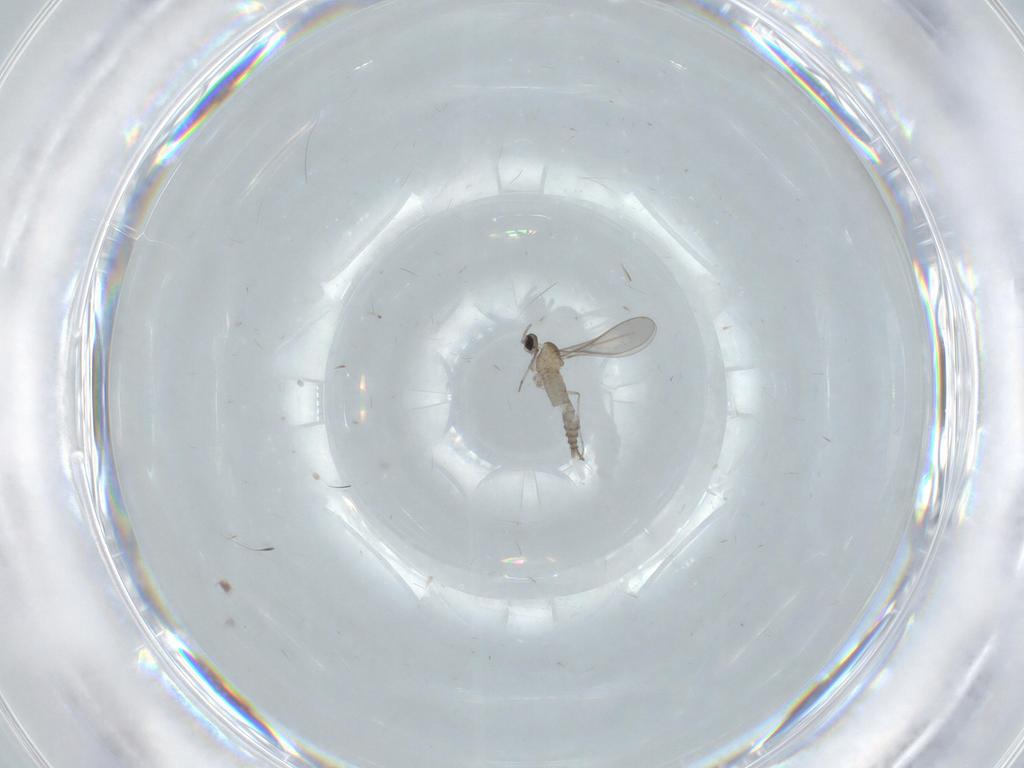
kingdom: Animalia
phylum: Arthropoda
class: Insecta
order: Diptera
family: Cecidomyiidae
